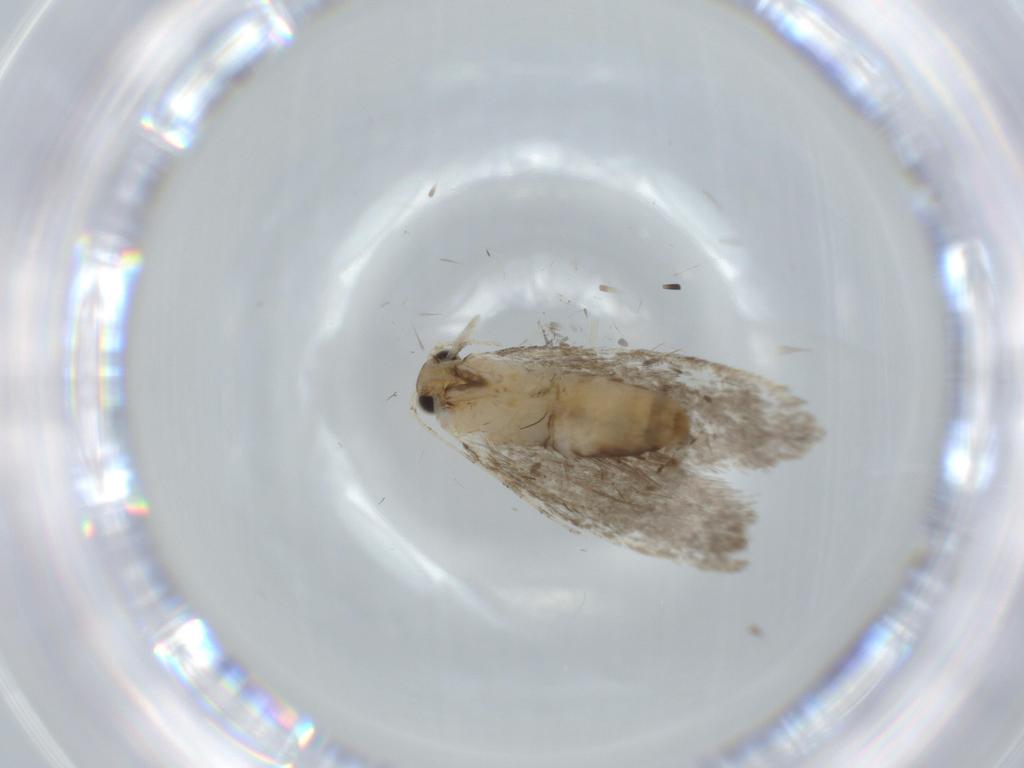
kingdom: Animalia
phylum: Arthropoda
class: Insecta
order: Lepidoptera
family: Tineidae
